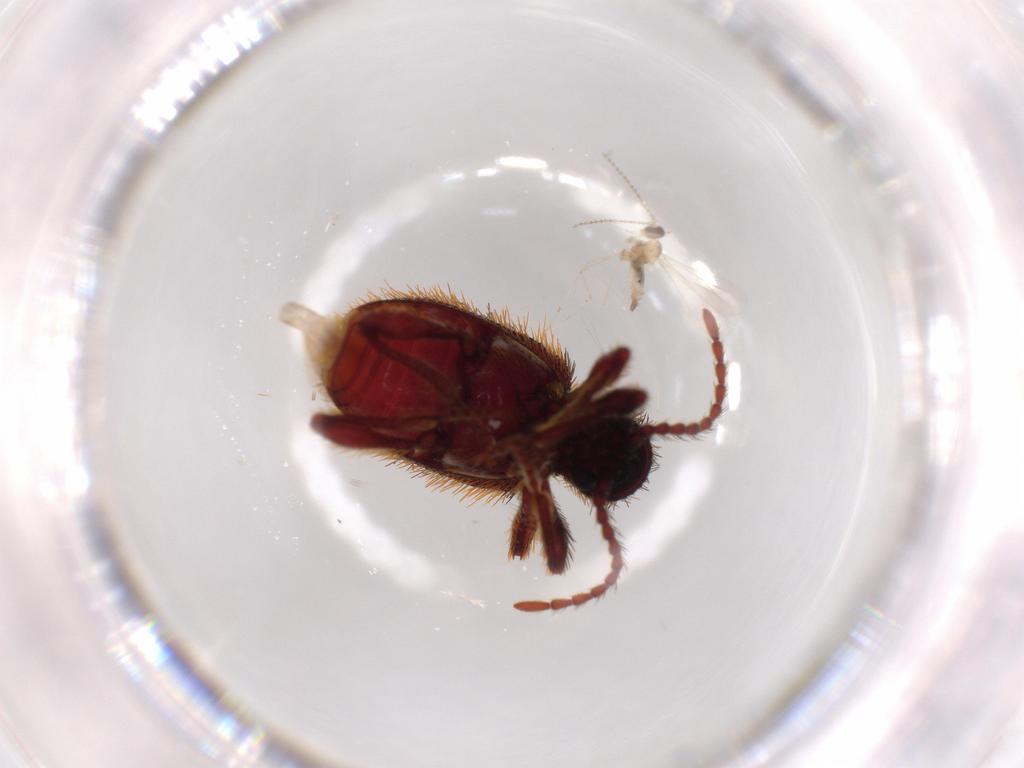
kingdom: Animalia
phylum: Arthropoda
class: Insecta
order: Coleoptera
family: Ptinidae
